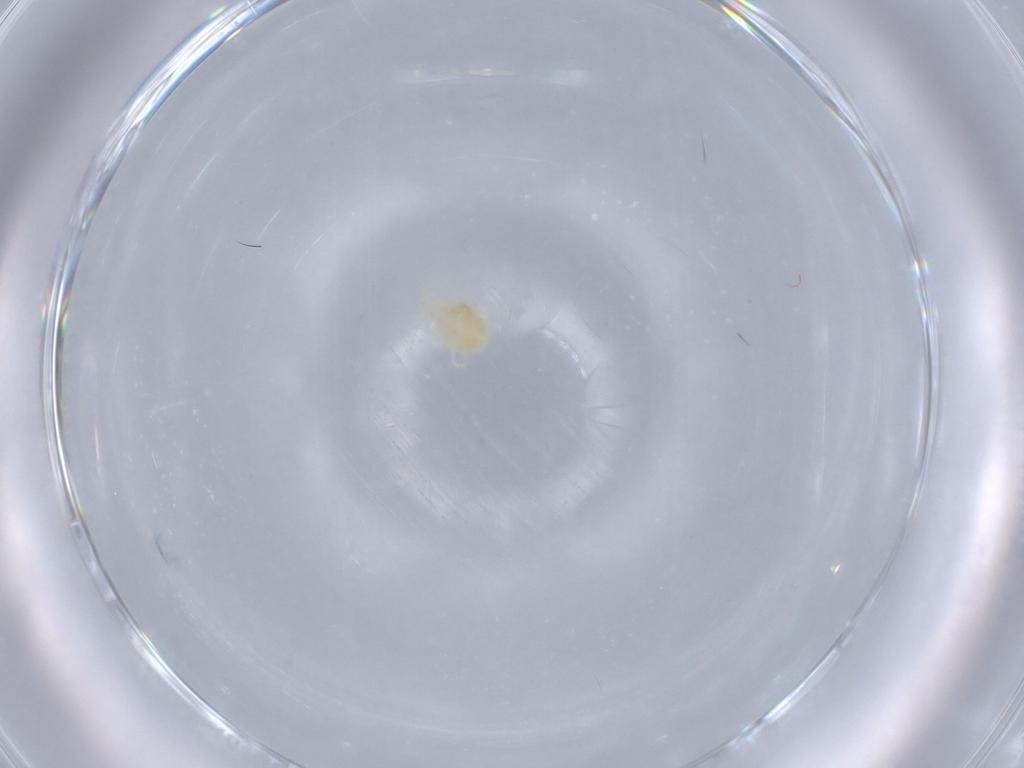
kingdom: Animalia
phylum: Arthropoda
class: Arachnida
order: Trombidiformes
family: Erythraeidae
